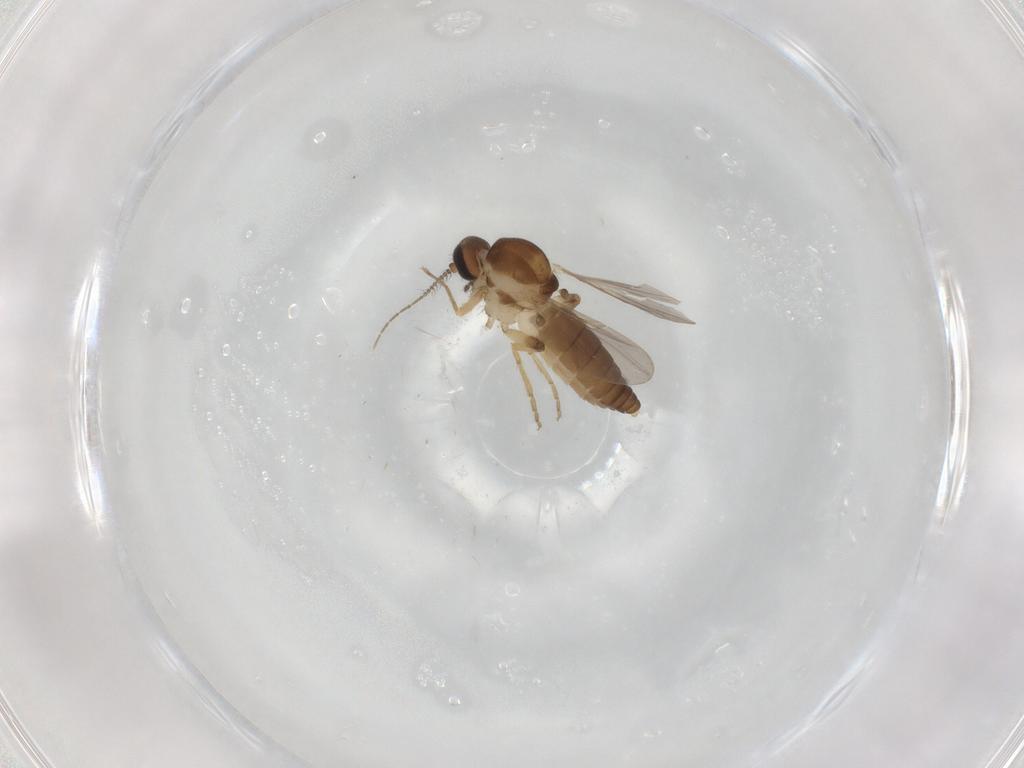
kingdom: Animalia
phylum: Arthropoda
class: Insecta
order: Diptera
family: Ceratopogonidae
